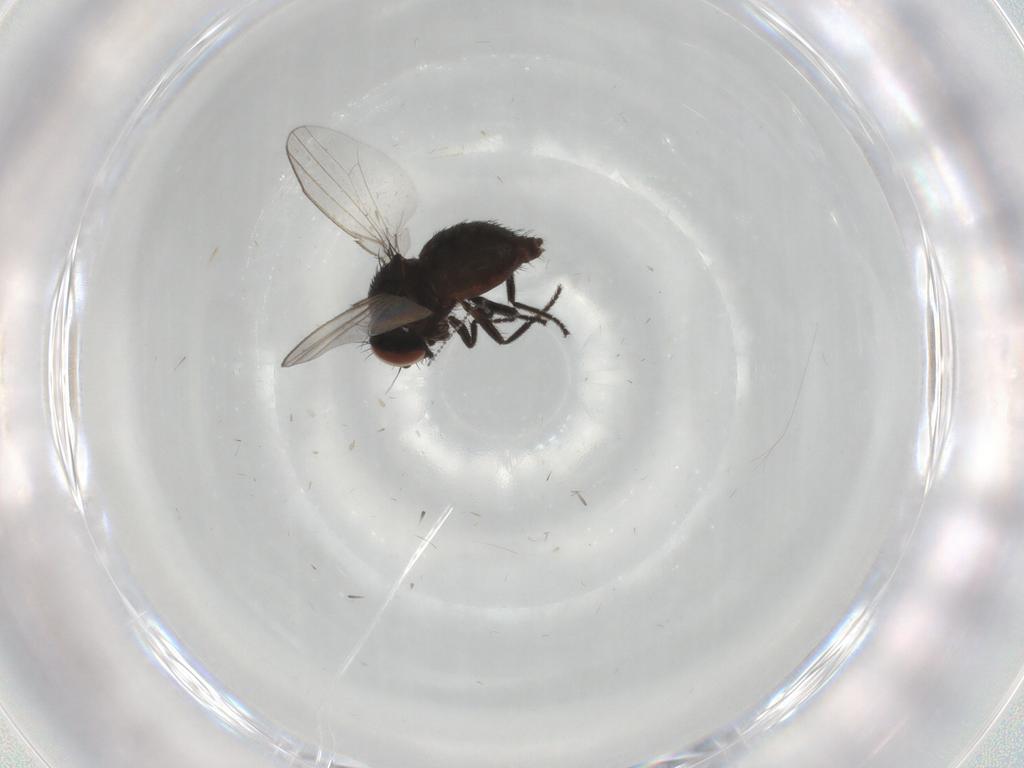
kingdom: Animalia
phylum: Arthropoda
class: Insecta
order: Diptera
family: Milichiidae
